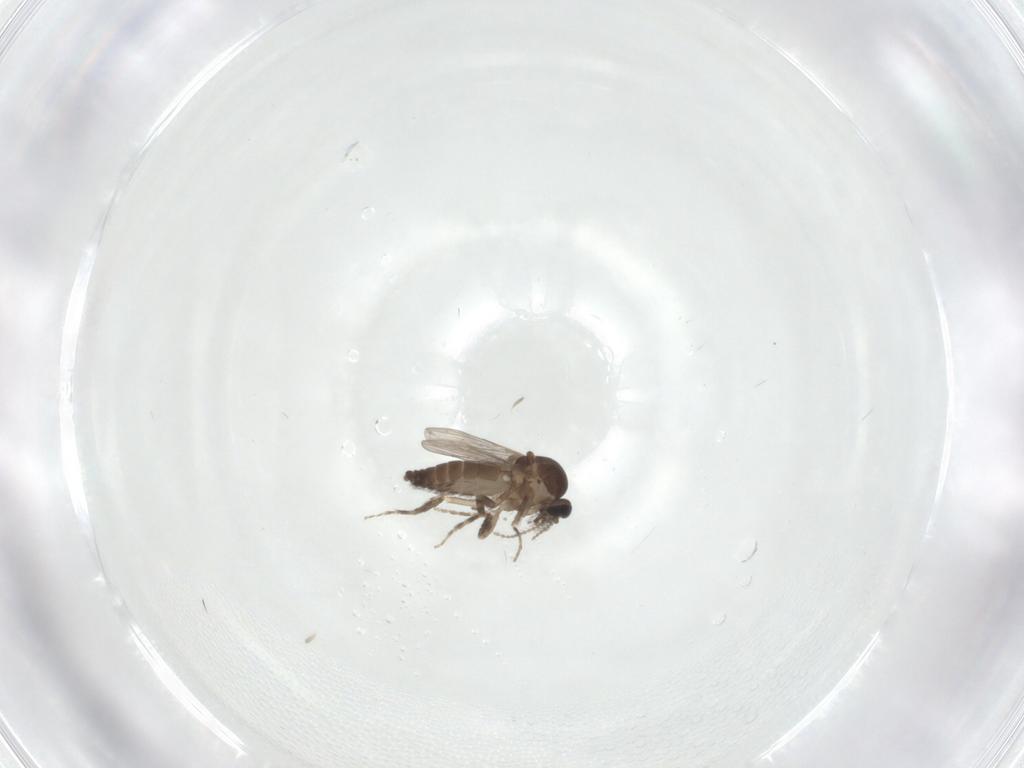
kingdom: Animalia
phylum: Arthropoda
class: Insecta
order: Diptera
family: Ceratopogonidae
